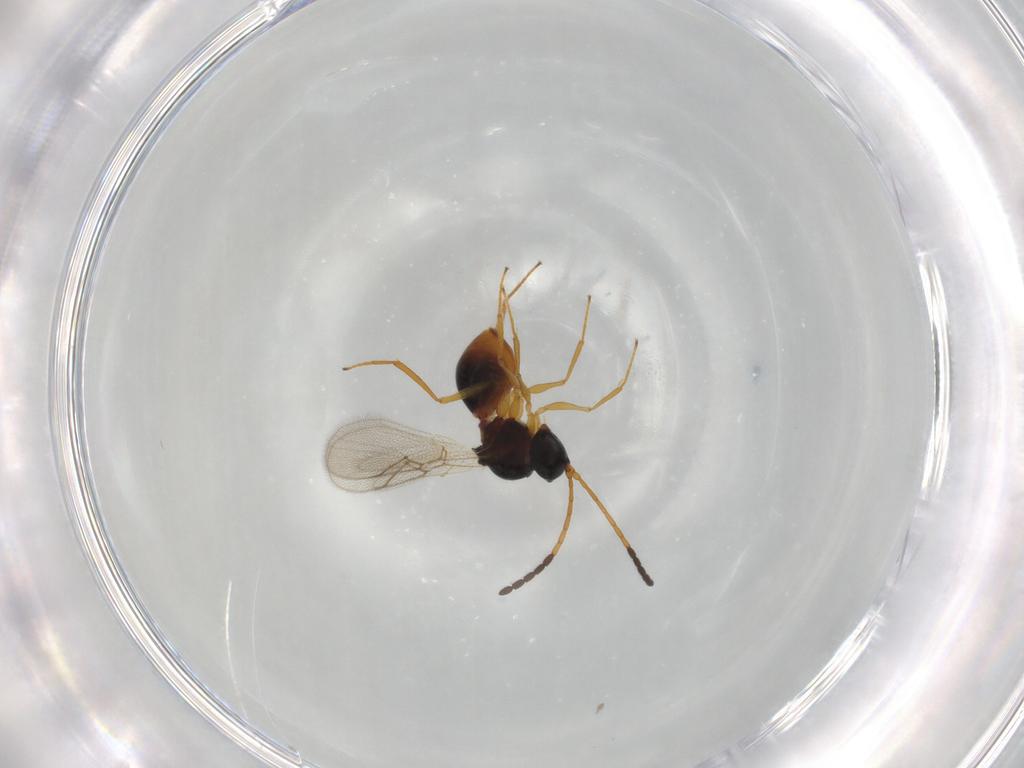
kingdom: Animalia
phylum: Arthropoda
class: Insecta
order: Hymenoptera
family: Figitidae
